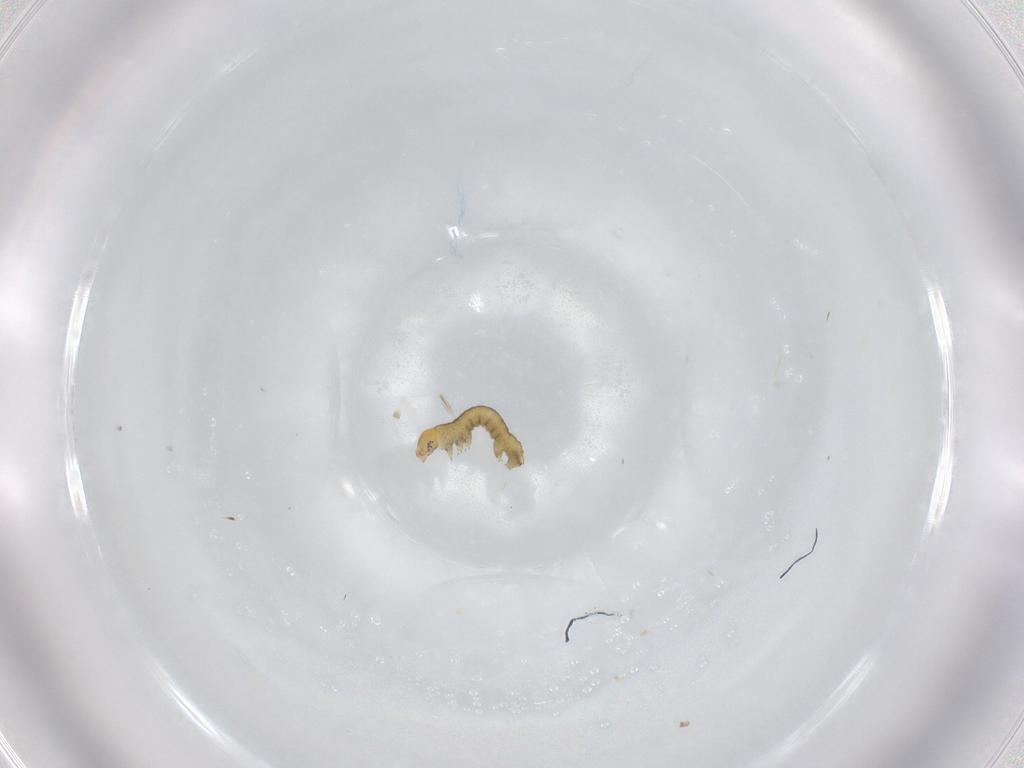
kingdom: Animalia
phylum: Arthropoda
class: Insecta
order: Lepidoptera
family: Geometridae
